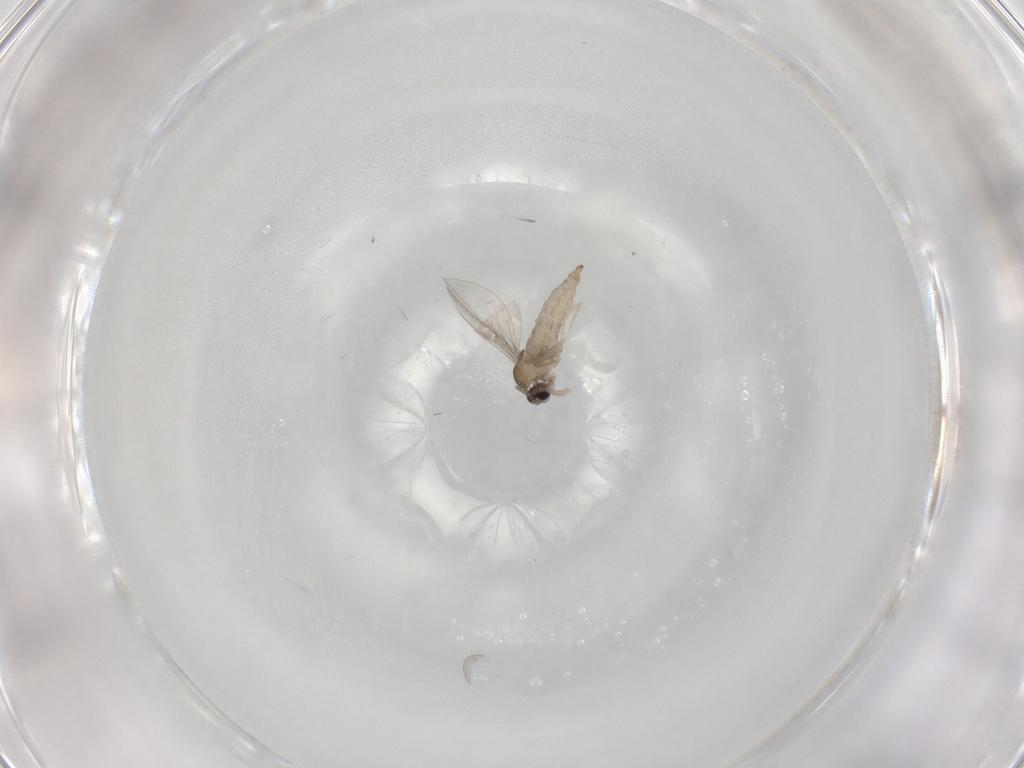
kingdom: Animalia
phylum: Arthropoda
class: Insecta
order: Diptera
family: Cecidomyiidae
